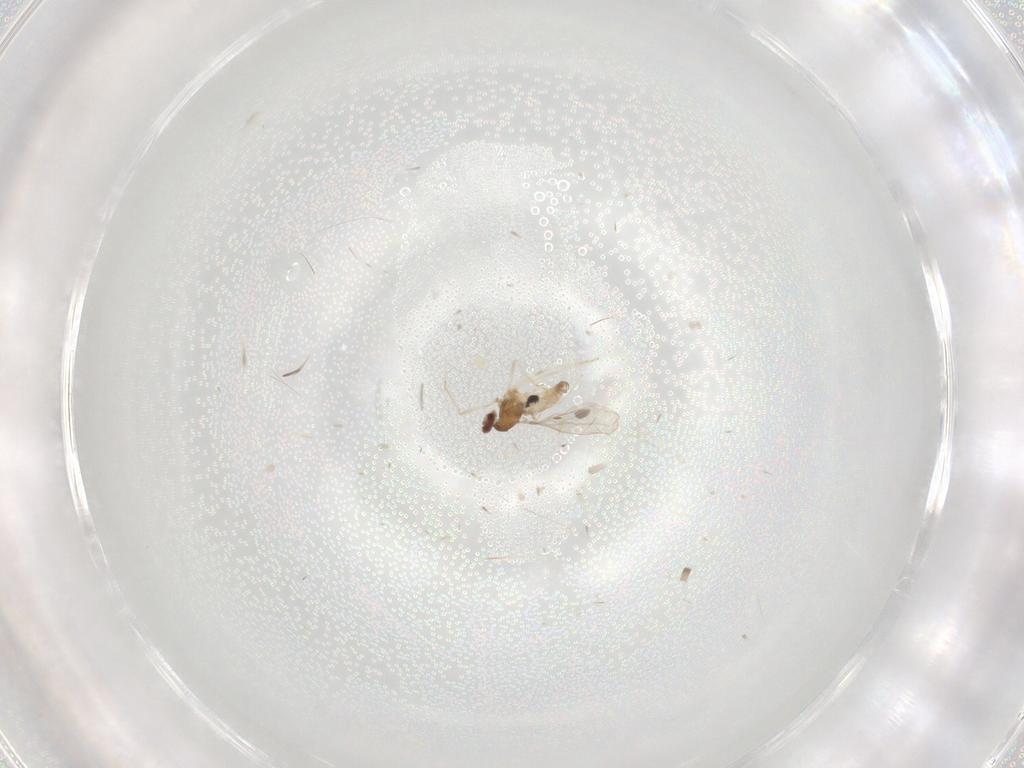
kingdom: Animalia
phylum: Arthropoda
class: Insecta
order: Diptera
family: Cecidomyiidae
